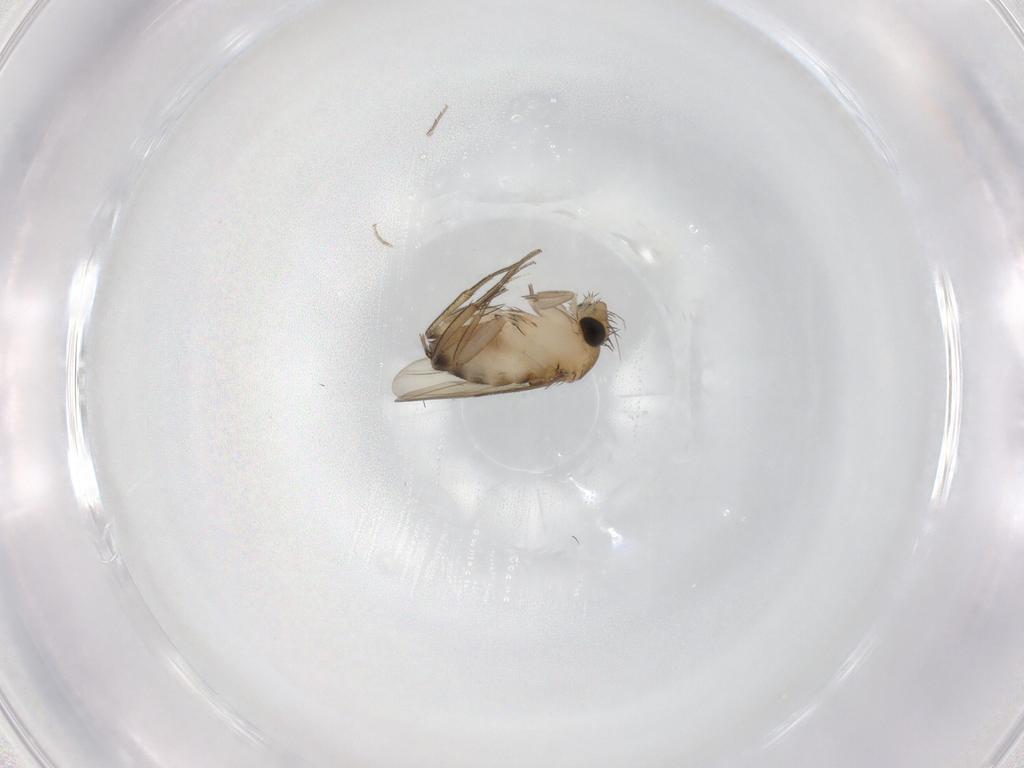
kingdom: Animalia
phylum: Arthropoda
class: Insecta
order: Diptera
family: Phoridae
